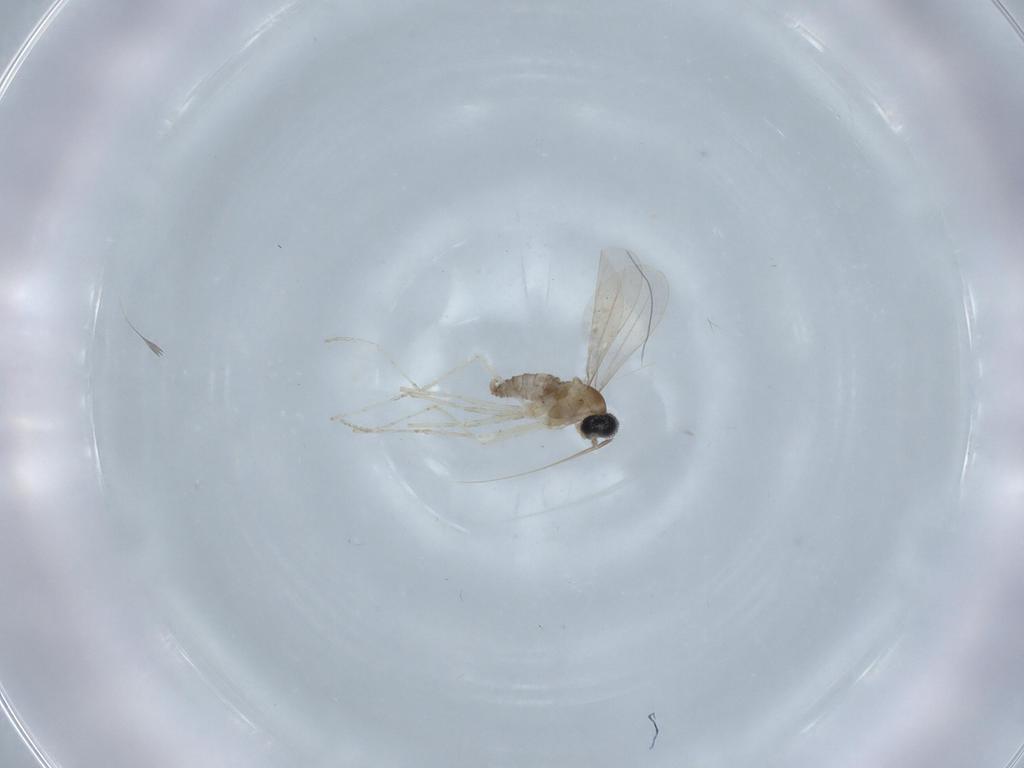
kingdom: Animalia
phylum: Arthropoda
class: Insecta
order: Diptera
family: Cecidomyiidae
